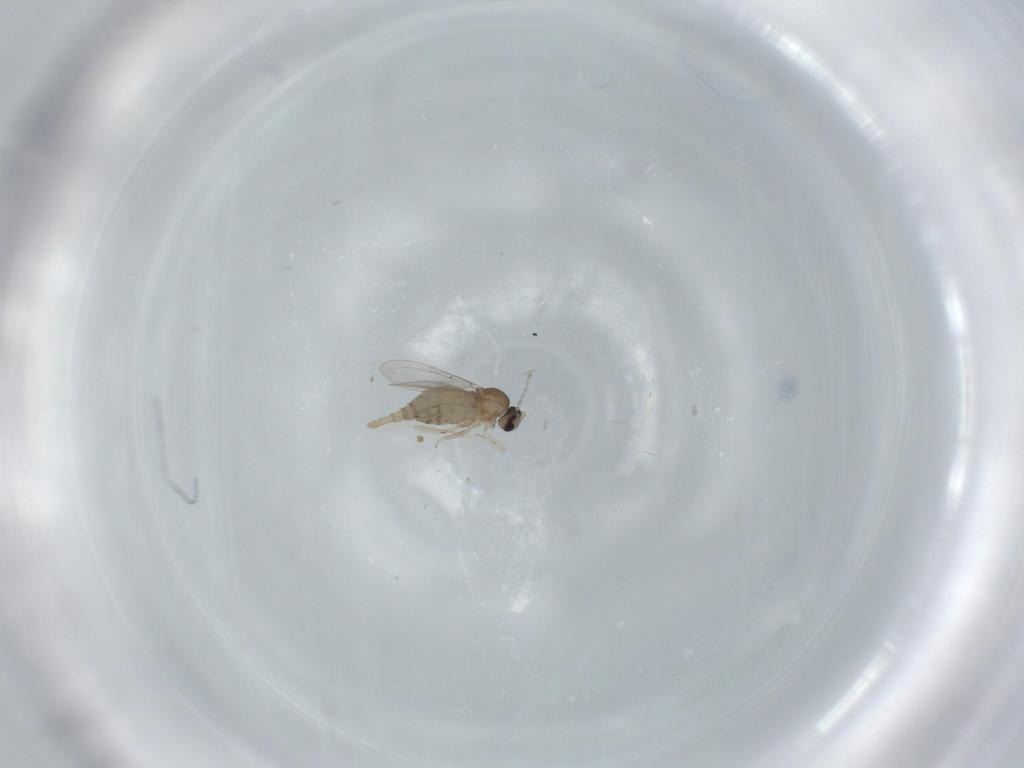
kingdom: Animalia
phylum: Arthropoda
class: Insecta
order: Diptera
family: Cecidomyiidae
